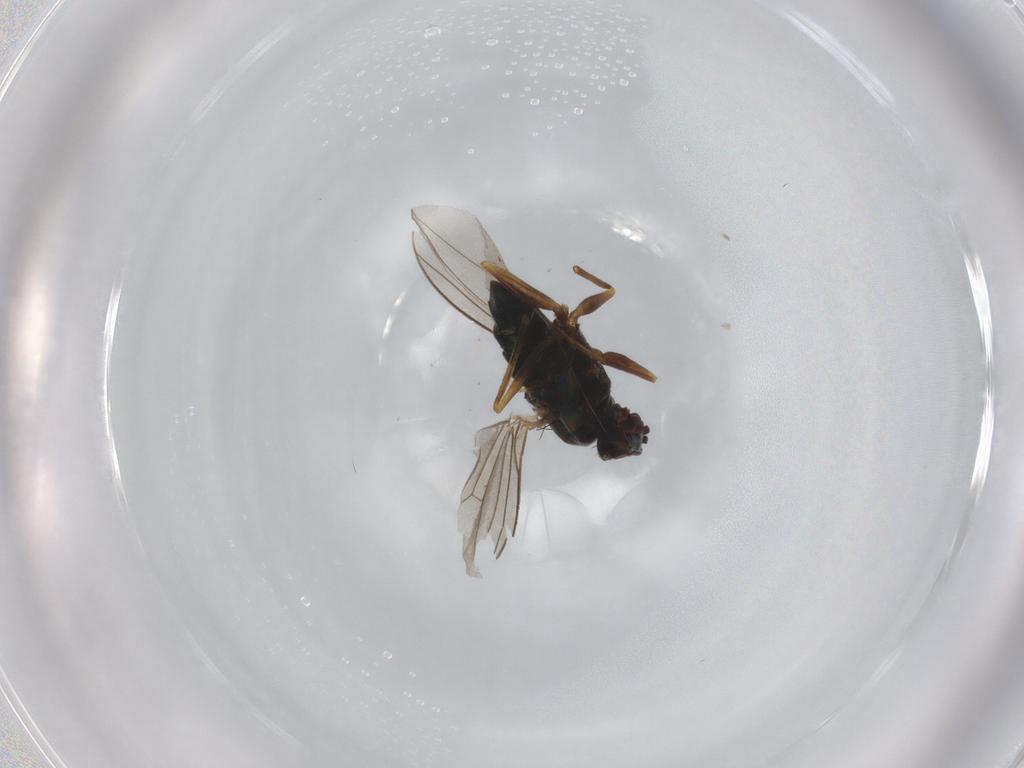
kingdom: Animalia
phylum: Arthropoda
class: Insecta
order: Diptera
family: Dolichopodidae
